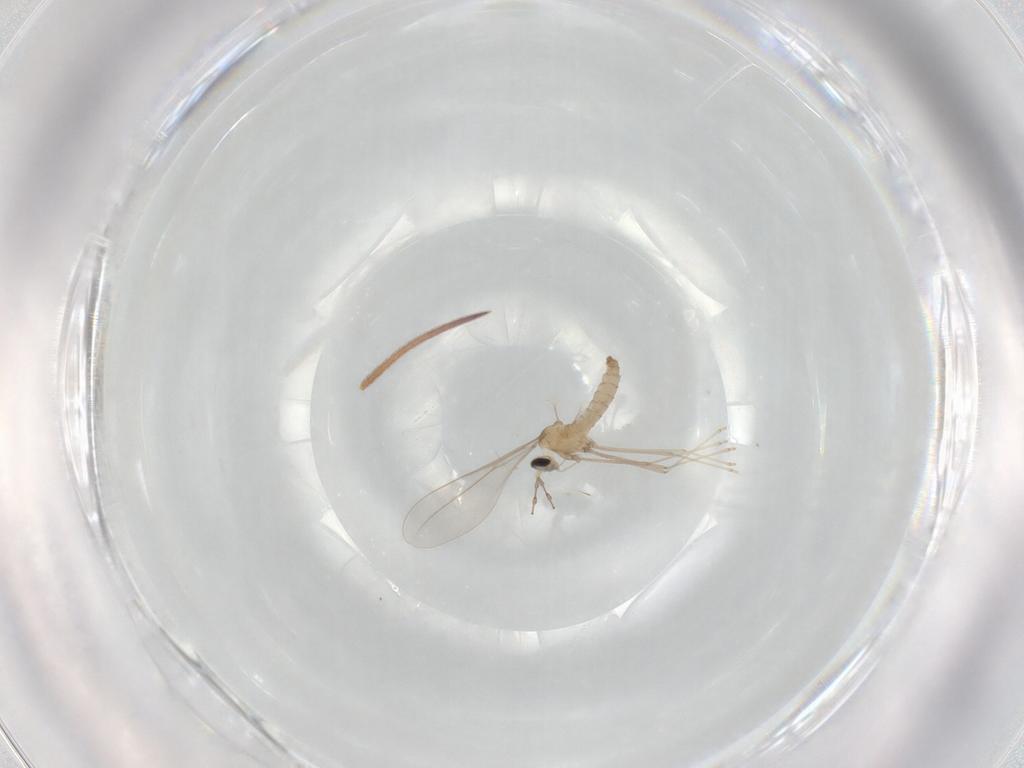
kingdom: Animalia
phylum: Arthropoda
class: Insecta
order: Diptera
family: Cecidomyiidae
